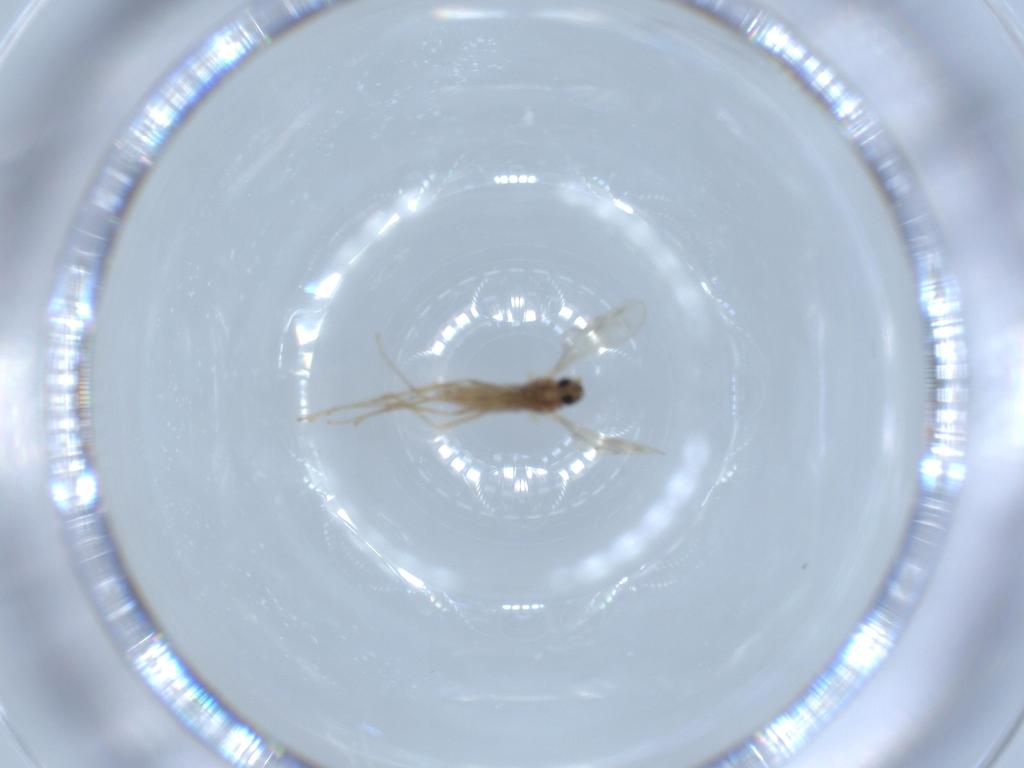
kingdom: Animalia
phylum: Arthropoda
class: Insecta
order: Diptera
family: Cecidomyiidae
